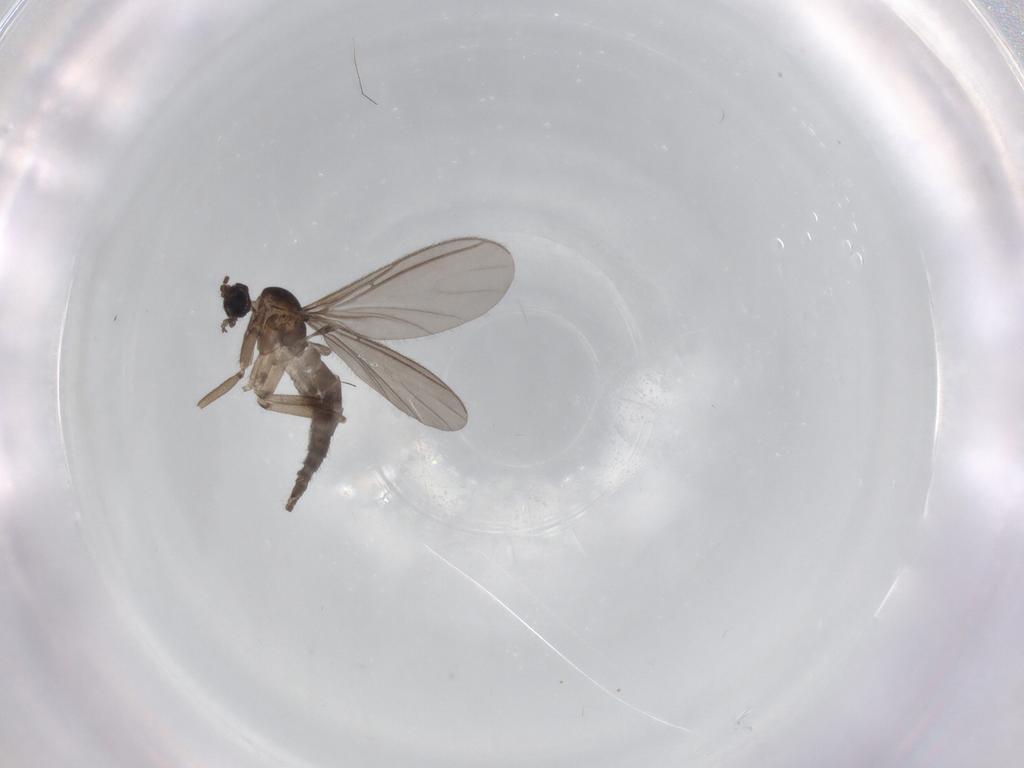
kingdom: Animalia
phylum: Arthropoda
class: Insecta
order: Diptera
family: Sciaridae
